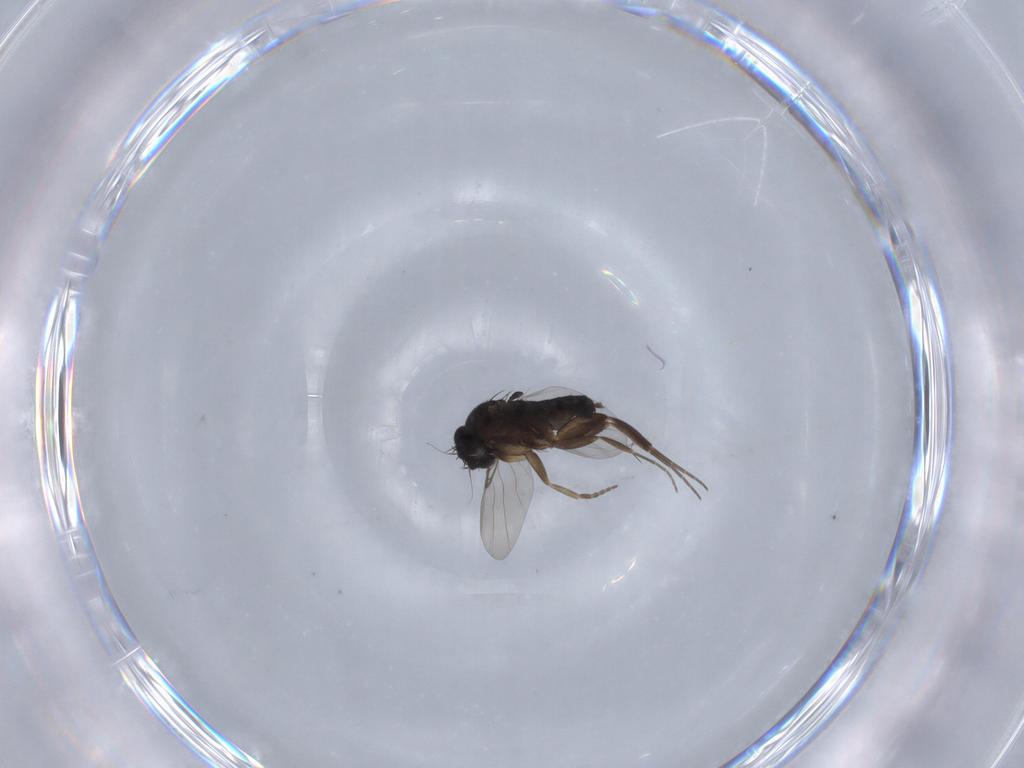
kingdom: Animalia
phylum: Arthropoda
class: Insecta
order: Diptera
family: Phoridae
